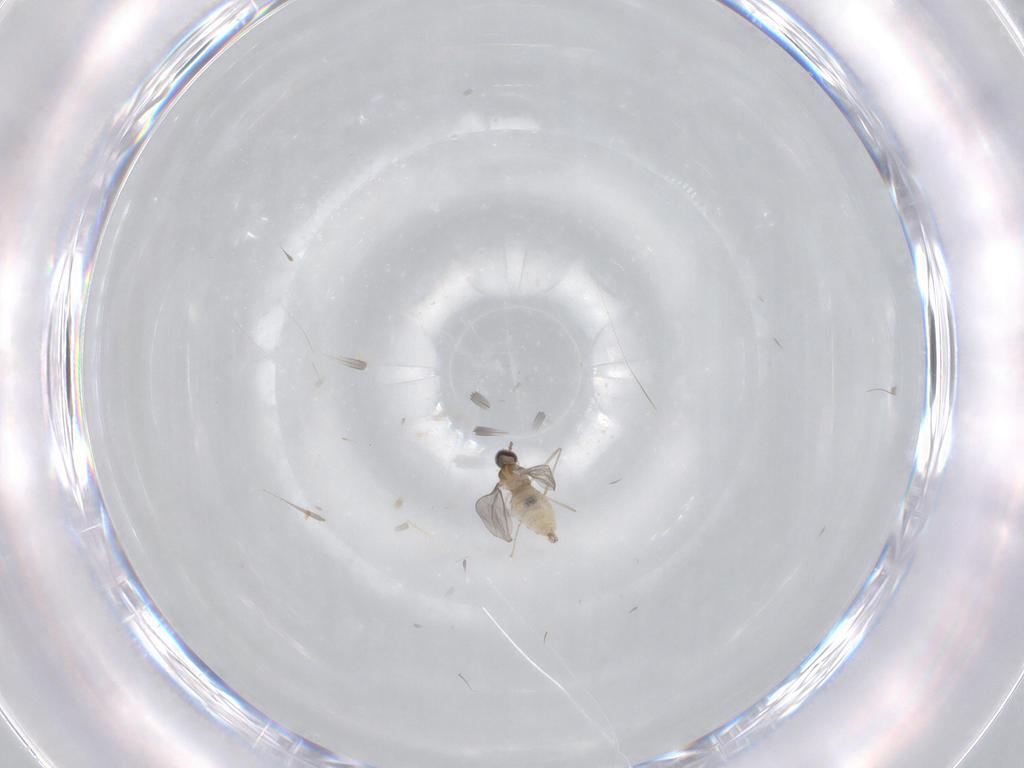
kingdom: Animalia
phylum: Arthropoda
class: Insecta
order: Diptera
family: Cecidomyiidae
